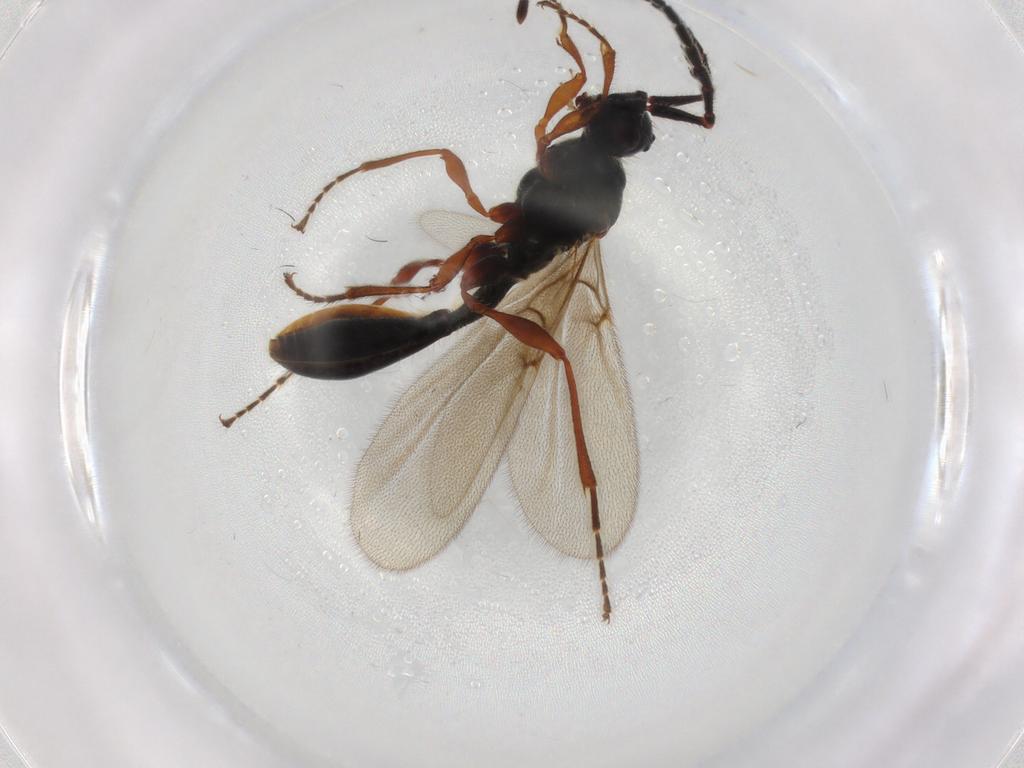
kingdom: Animalia
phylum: Arthropoda
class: Insecta
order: Hymenoptera
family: Diapriidae
